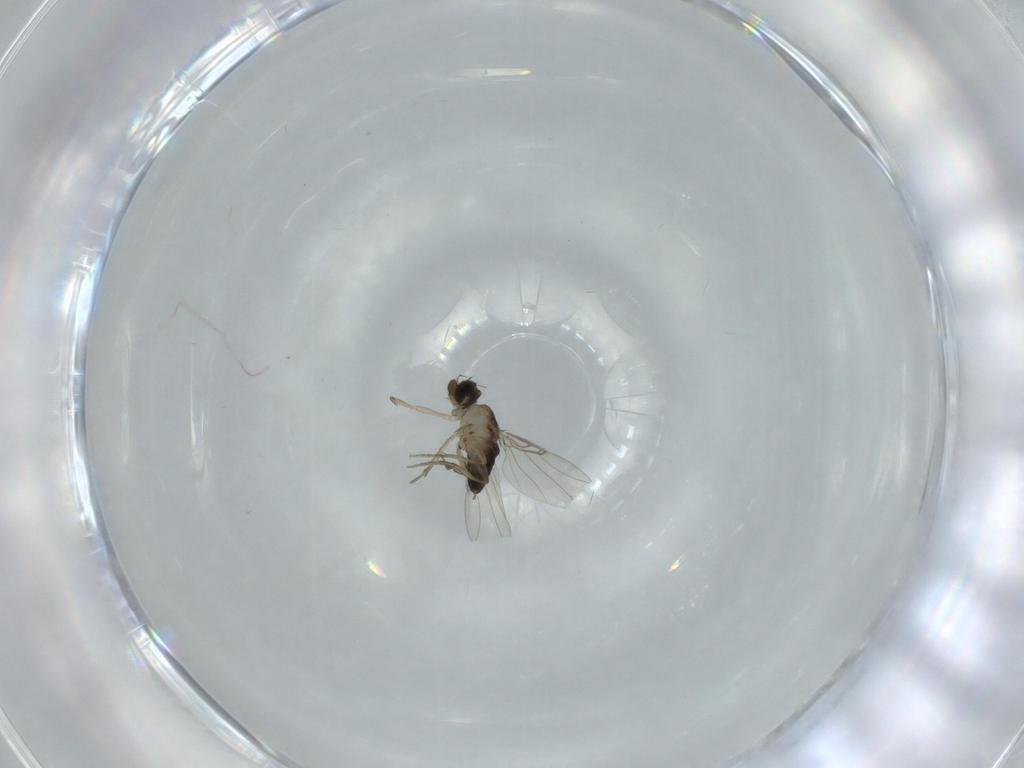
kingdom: Animalia
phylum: Arthropoda
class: Insecta
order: Diptera
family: Phoridae
